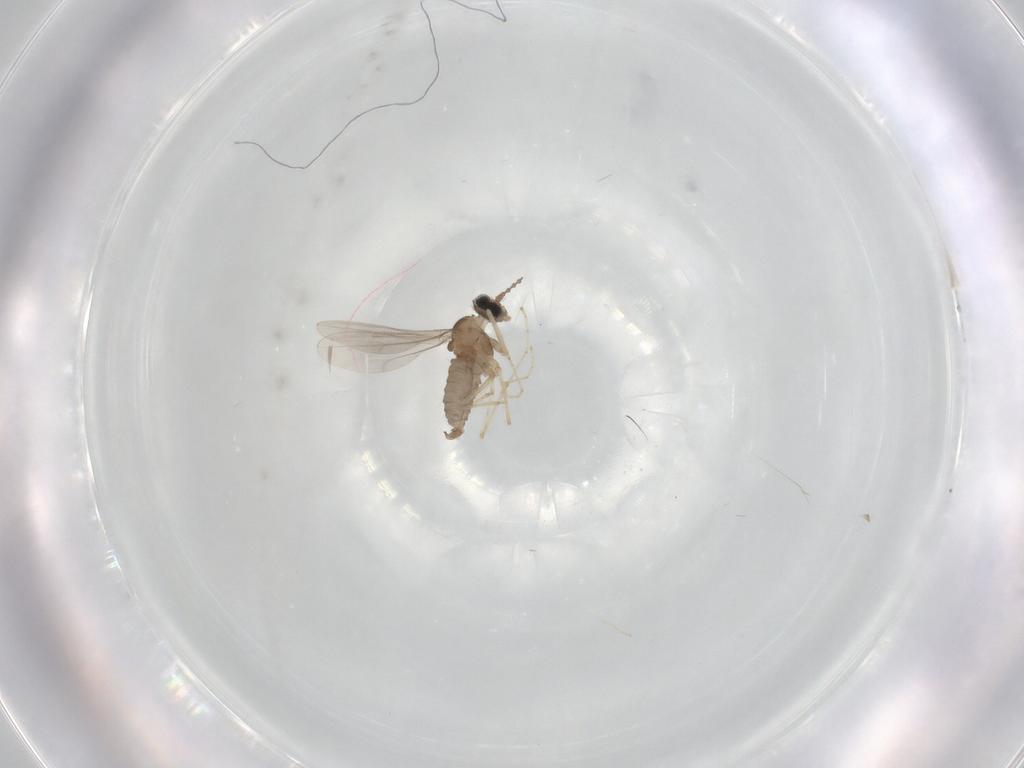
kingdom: Animalia
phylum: Arthropoda
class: Insecta
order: Diptera
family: Cecidomyiidae
